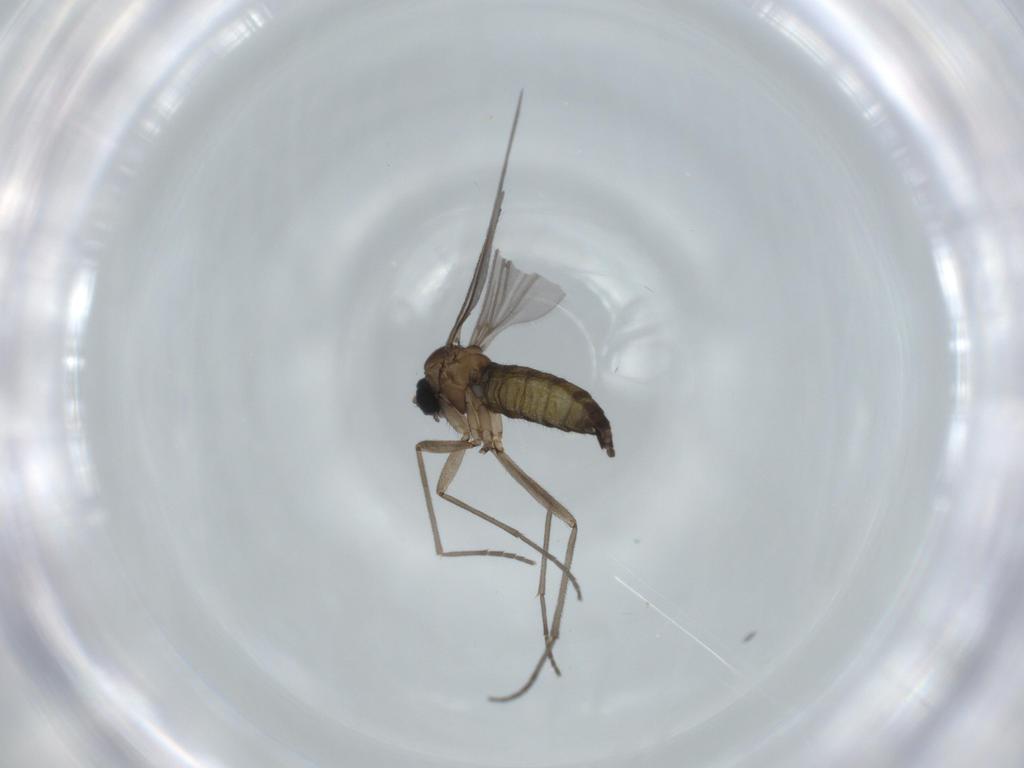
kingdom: Animalia
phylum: Arthropoda
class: Insecta
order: Diptera
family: Sciaridae
